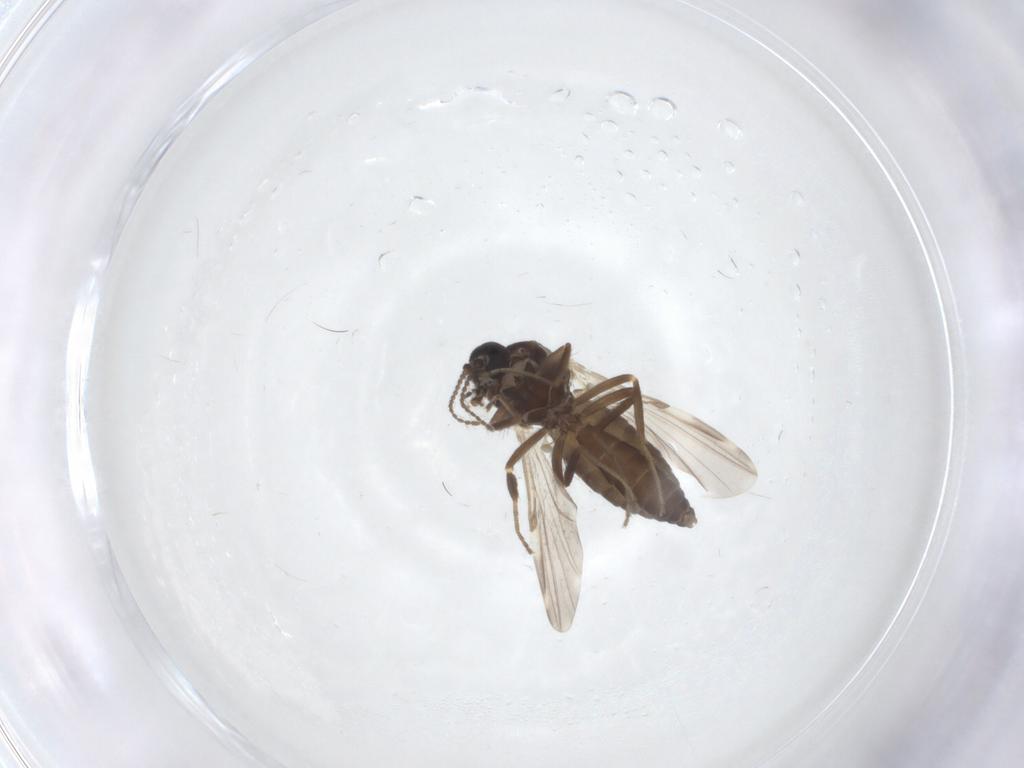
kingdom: Animalia
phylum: Arthropoda
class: Insecta
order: Diptera
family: Ceratopogonidae
